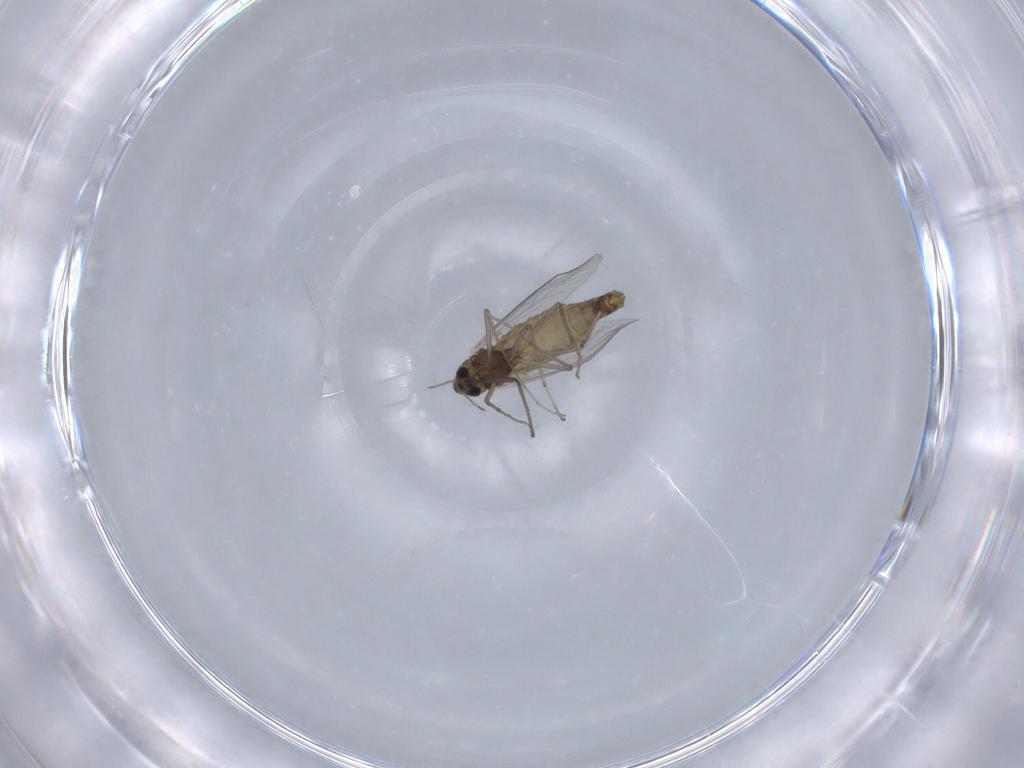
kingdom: Animalia
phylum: Arthropoda
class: Insecta
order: Diptera
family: Chironomidae
